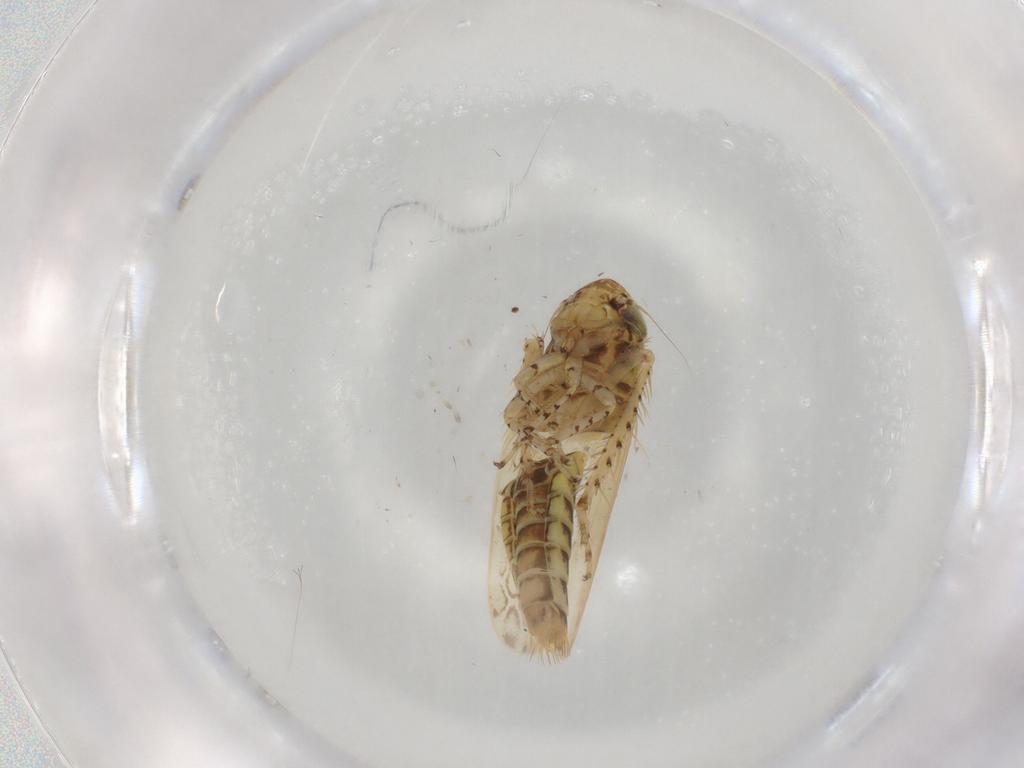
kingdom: Animalia
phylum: Arthropoda
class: Insecta
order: Hemiptera
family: Cicadellidae
